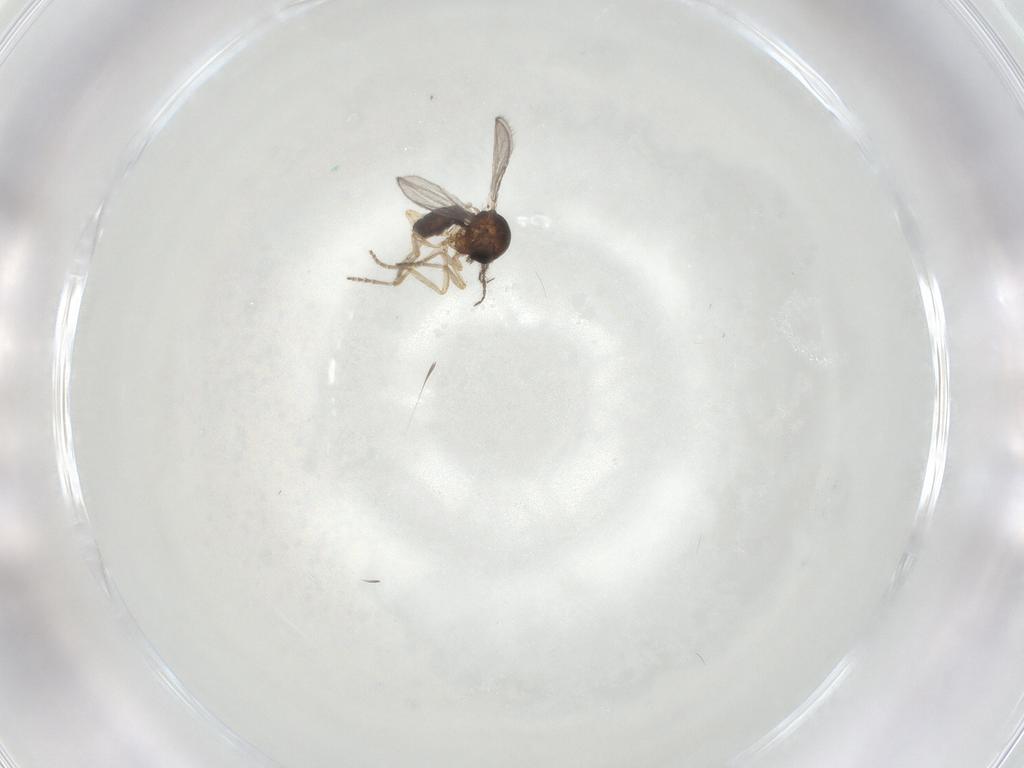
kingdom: Animalia
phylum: Arthropoda
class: Insecta
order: Diptera
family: Ceratopogonidae
